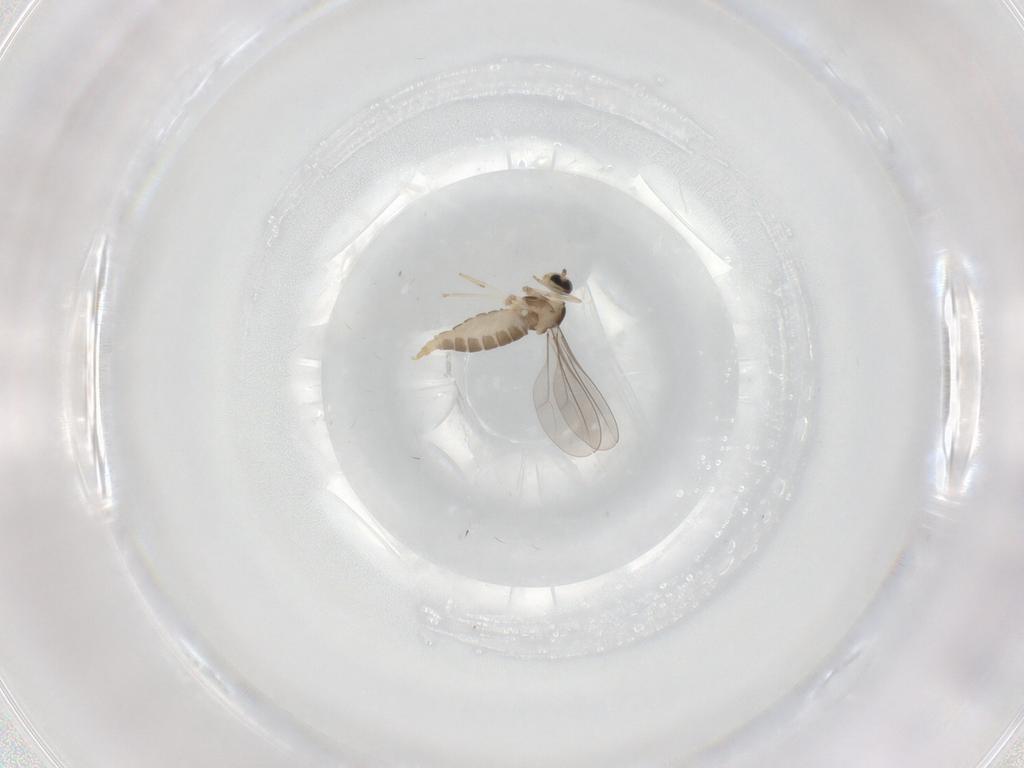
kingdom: Animalia
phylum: Arthropoda
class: Insecta
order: Diptera
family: Cecidomyiidae
